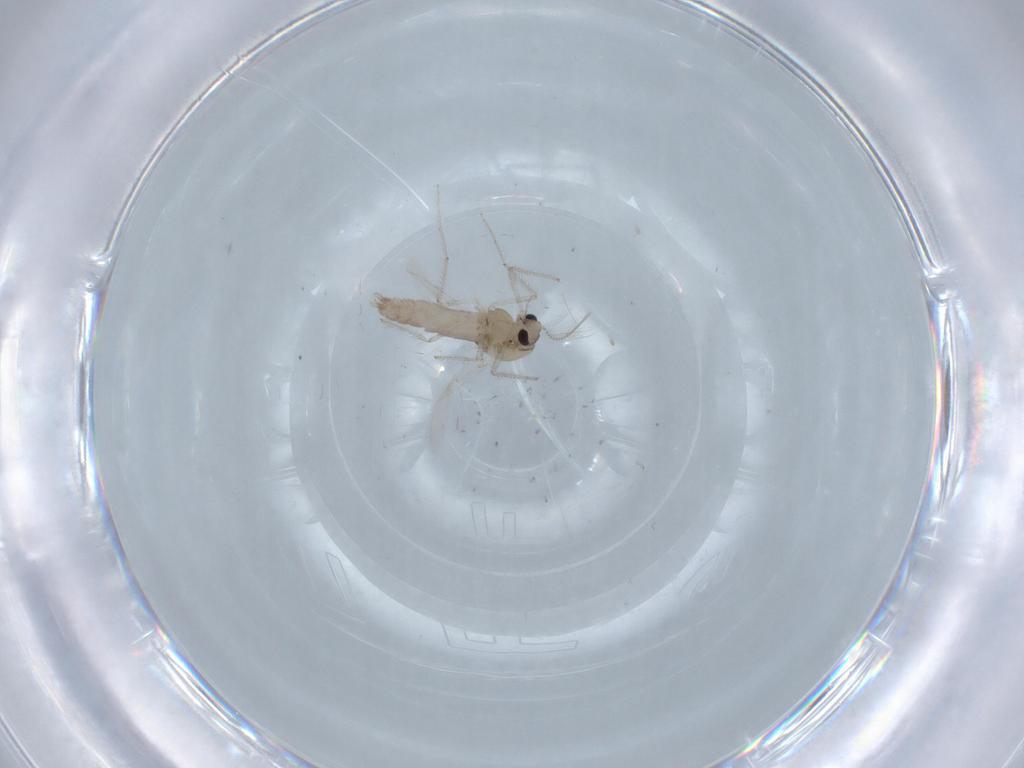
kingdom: Animalia
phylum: Arthropoda
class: Insecta
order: Diptera
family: Chironomidae
